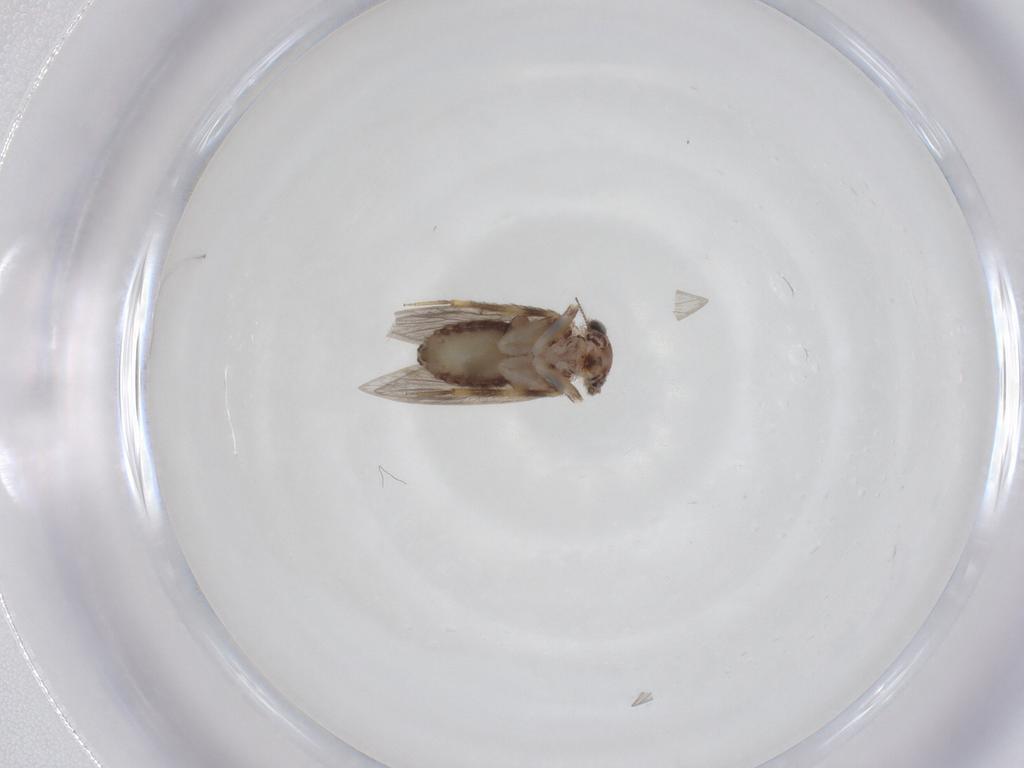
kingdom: Animalia
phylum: Arthropoda
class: Insecta
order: Psocodea
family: Lepidopsocidae
